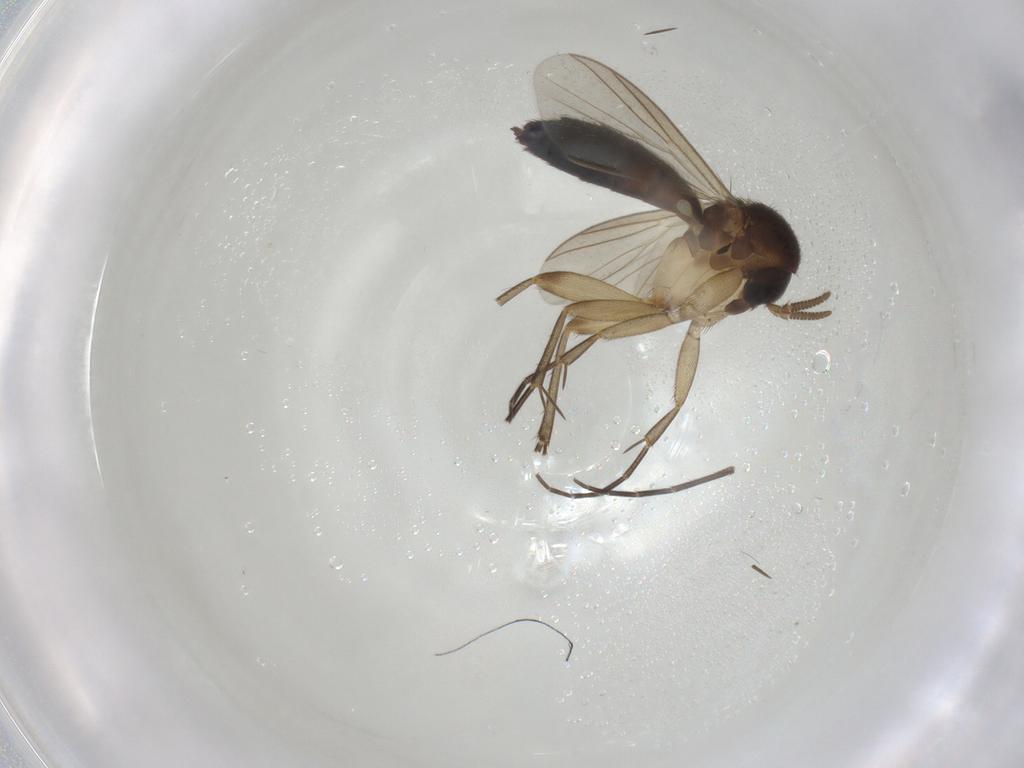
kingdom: Animalia
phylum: Arthropoda
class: Insecta
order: Diptera
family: Mycetophilidae
